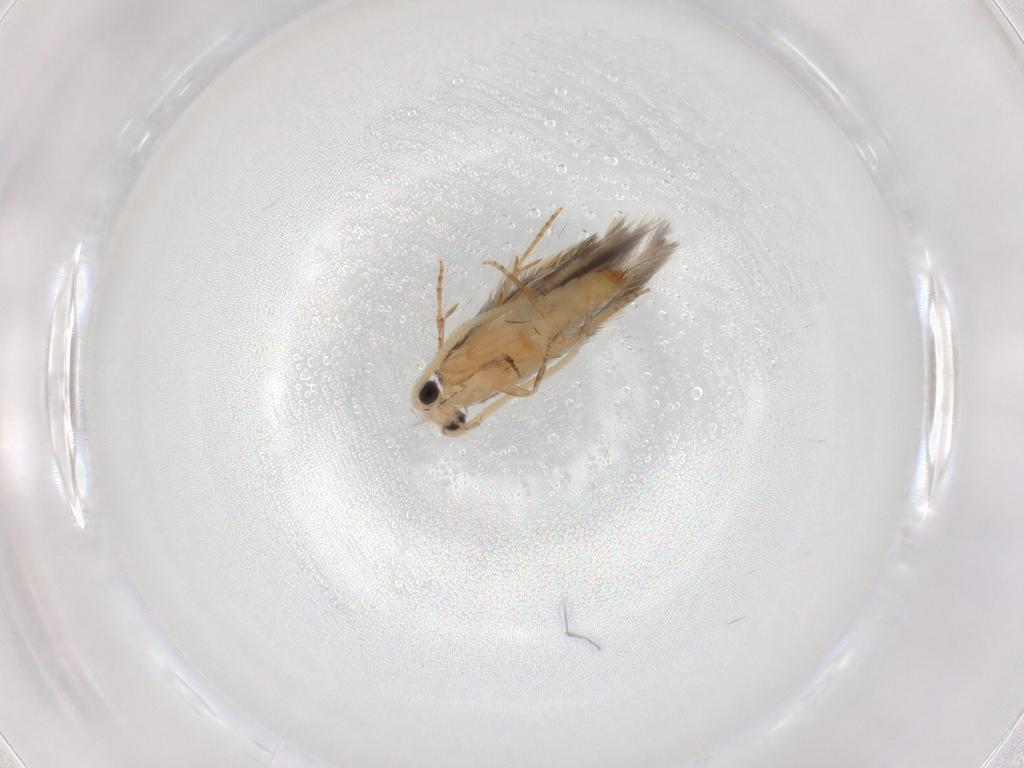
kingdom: Animalia
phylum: Arthropoda
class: Insecta
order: Trichoptera
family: Hydroptilidae
